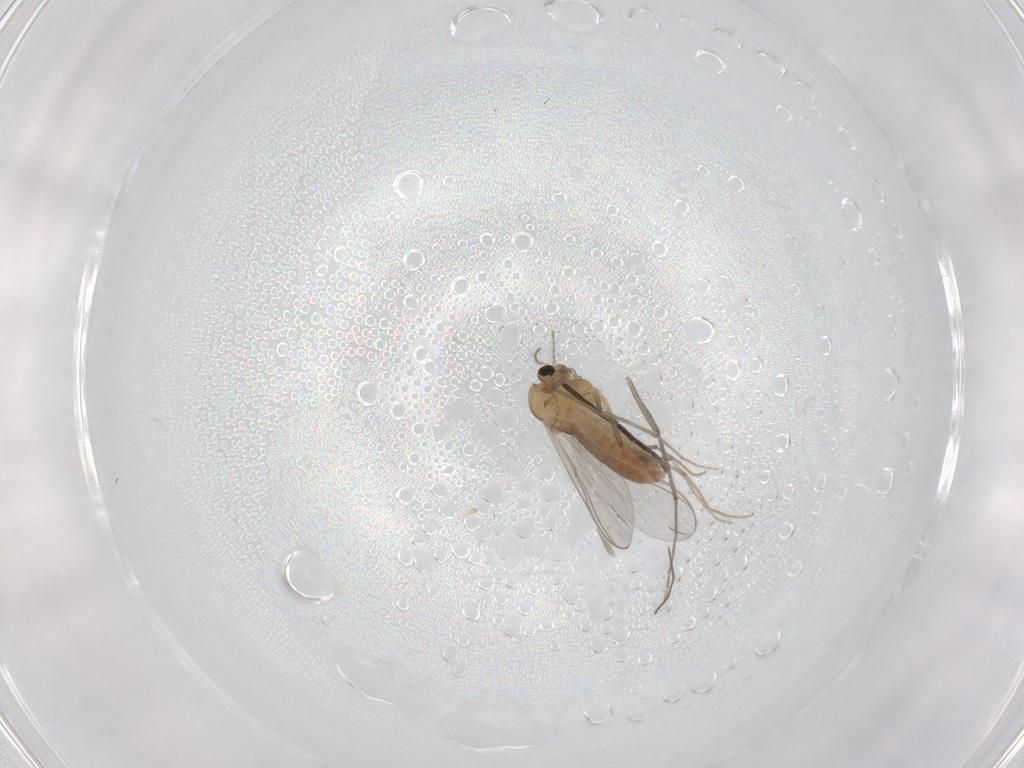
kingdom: Animalia
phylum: Arthropoda
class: Insecta
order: Diptera
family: Chironomidae
